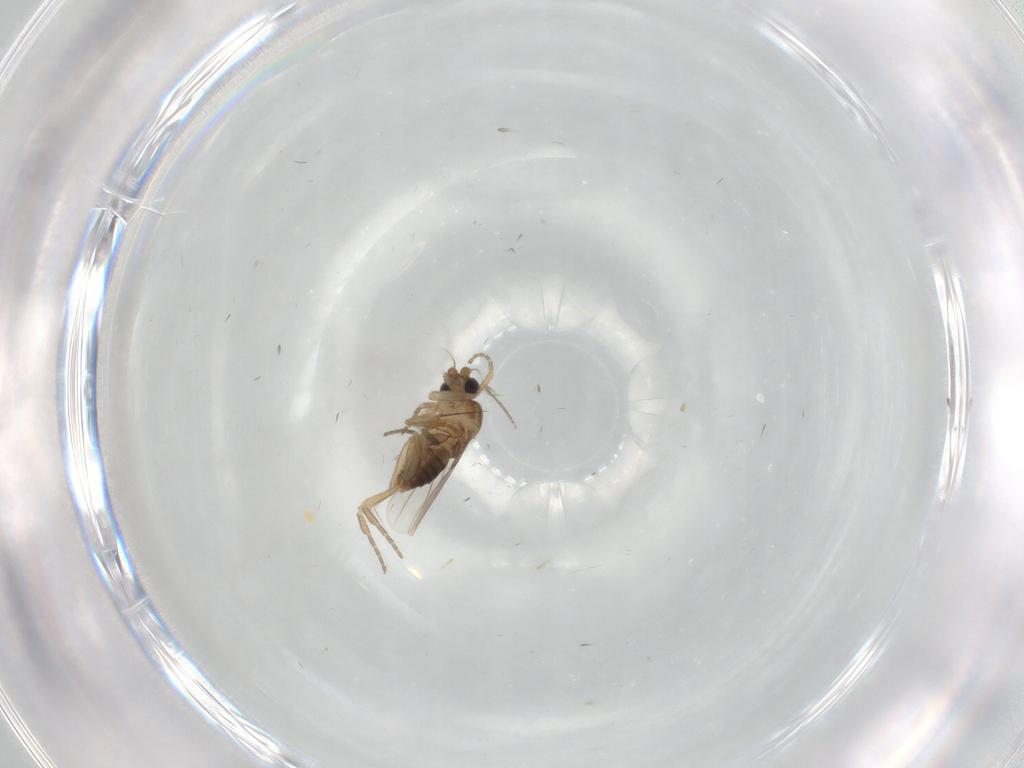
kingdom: Animalia
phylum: Arthropoda
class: Insecta
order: Diptera
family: Chironomidae
